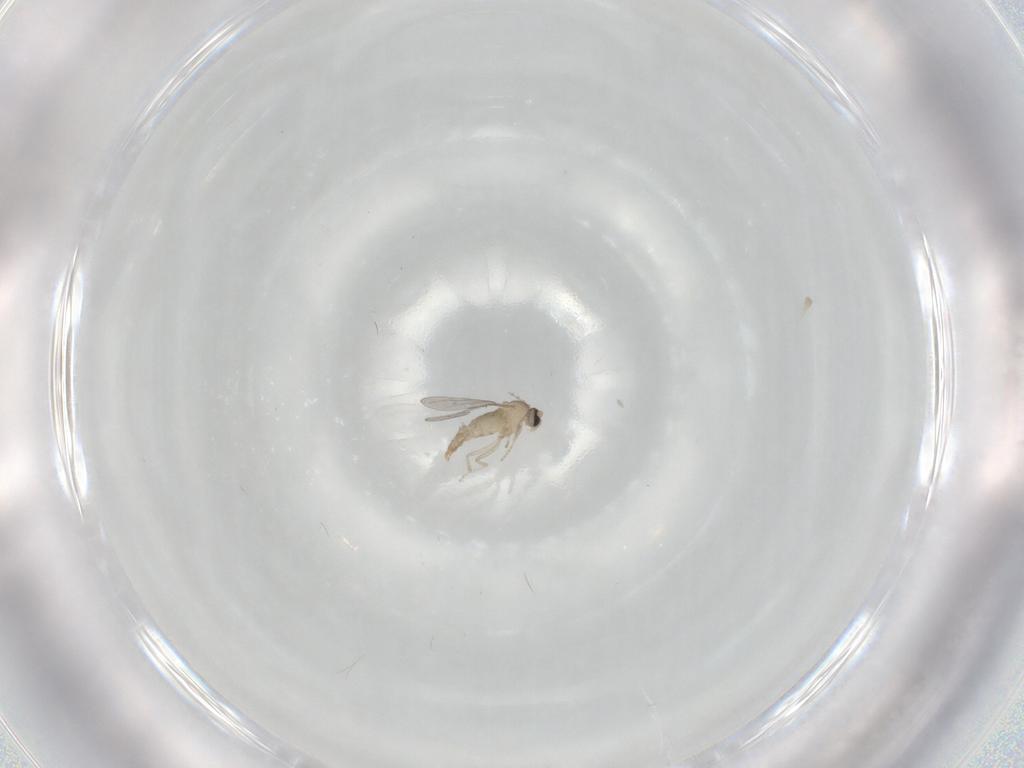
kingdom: Animalia
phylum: Arthropoda
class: Insecta
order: Diptera
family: Cecidomyiidae
